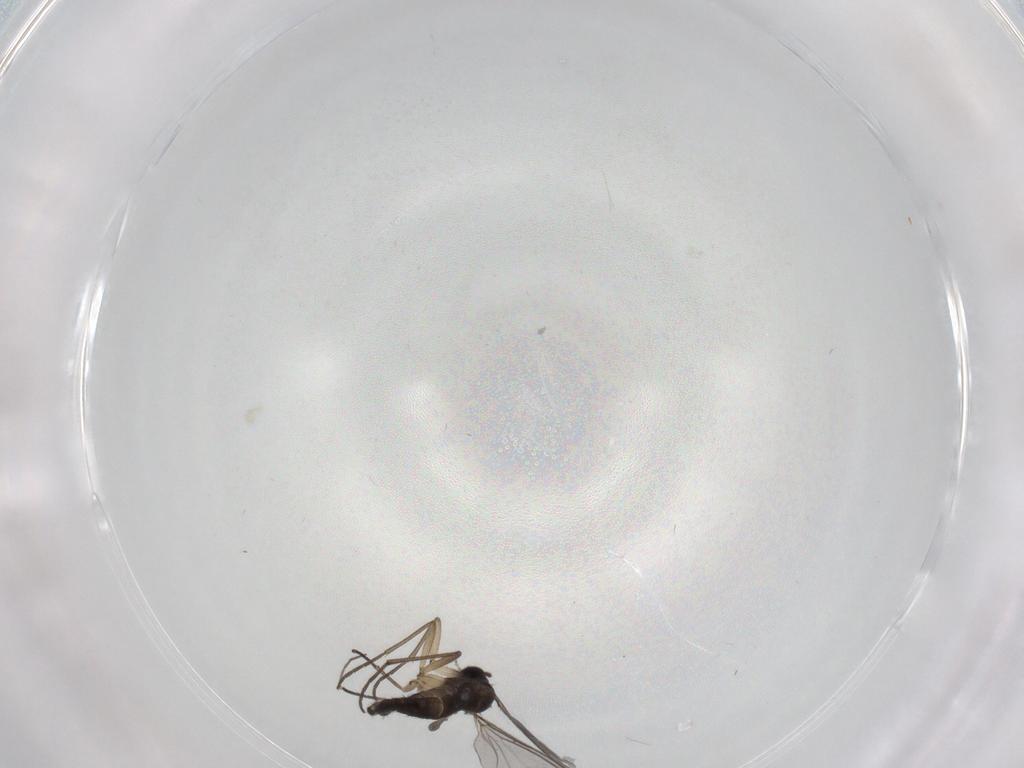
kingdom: Animalia
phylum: Arthropoda
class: Insecta
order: Diptera
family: Sciaridae
